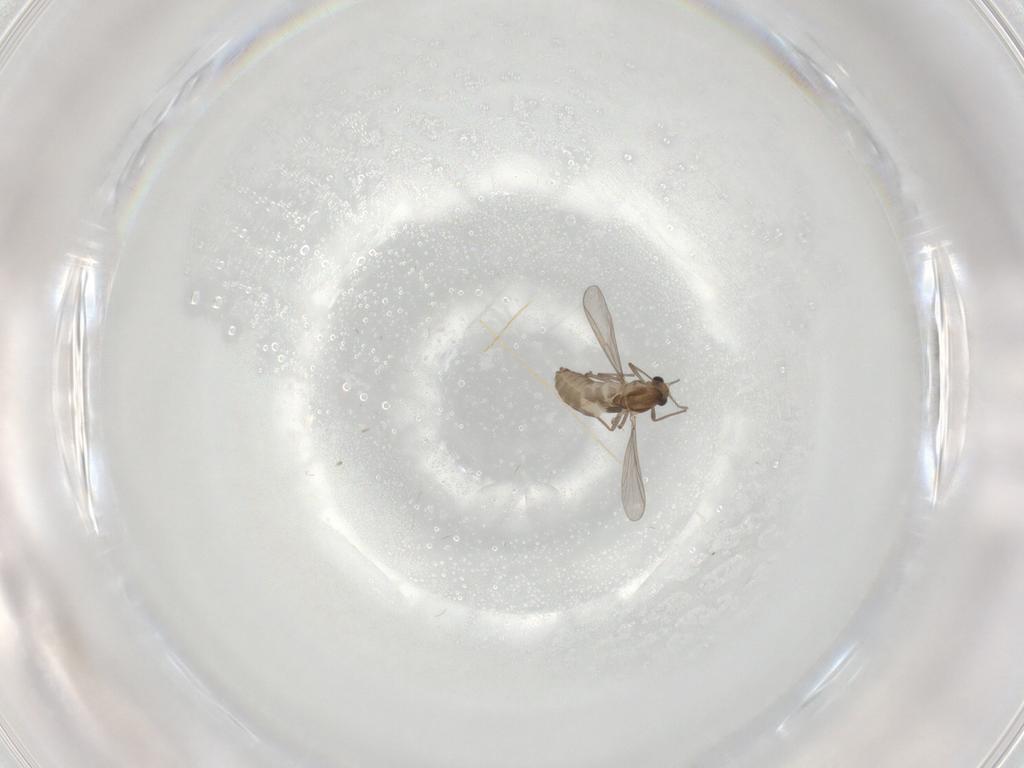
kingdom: Animalia
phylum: Arthropoda
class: Insecta
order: Diptera
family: Chironomidae
